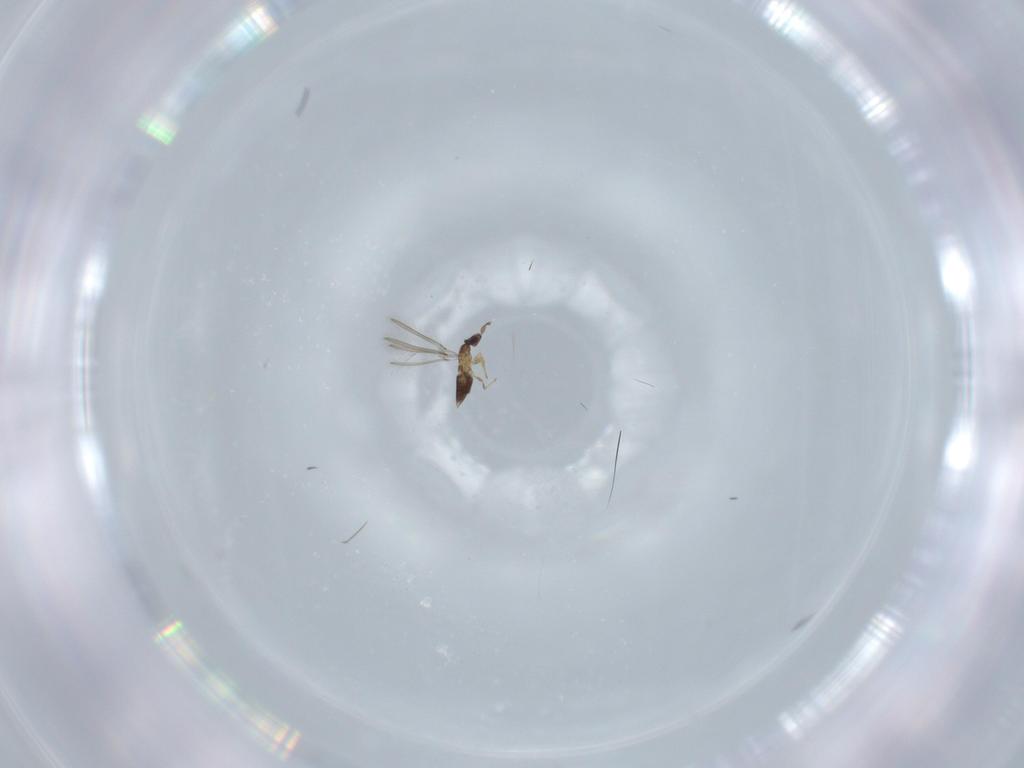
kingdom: Animalia
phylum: Arthropoda
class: Insecta
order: Hymenoptera
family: Mymaridae
